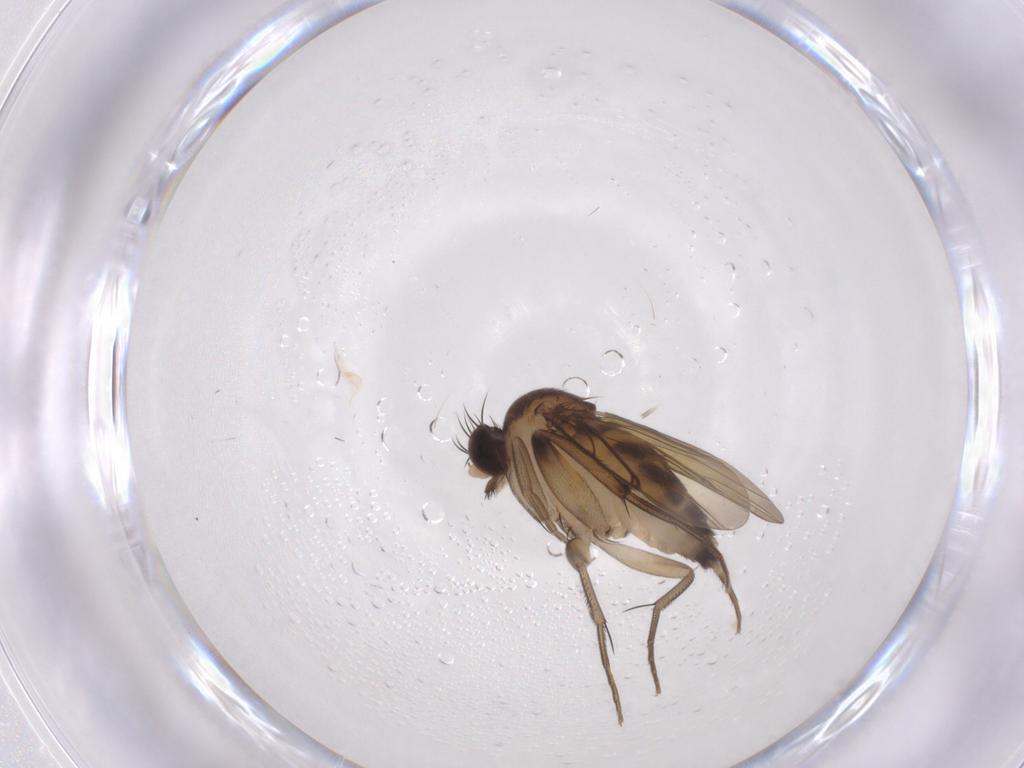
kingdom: Animalia
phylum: Arthropoda
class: Insecta
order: Diptera
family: Phoridae
